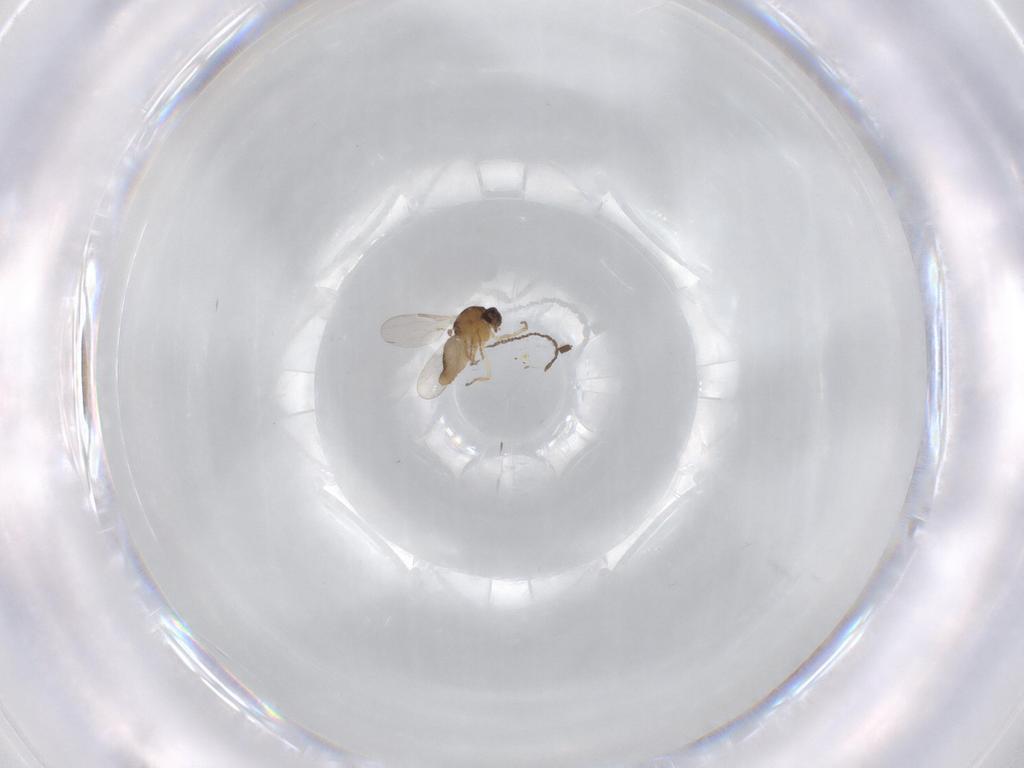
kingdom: Animalia
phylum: Arthropoda
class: Insecta
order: Diptera
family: Ceratopogonidae
